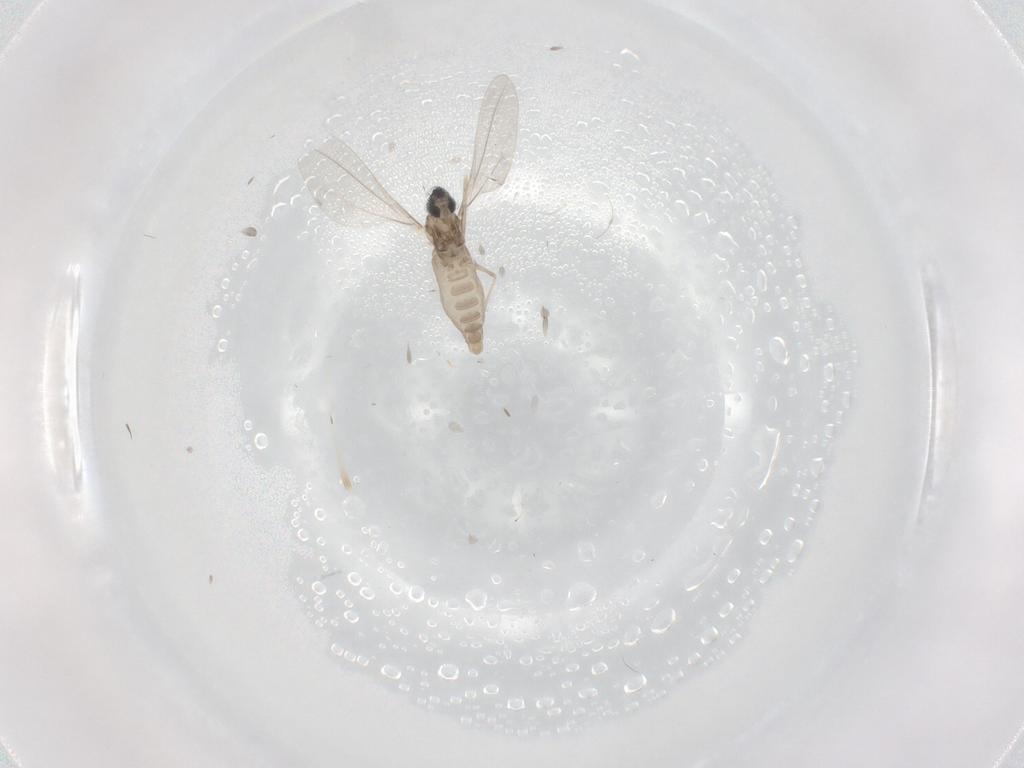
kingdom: Animalia
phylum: Arthropoda
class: Insecta
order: Diptera
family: Cecidomyiidae
